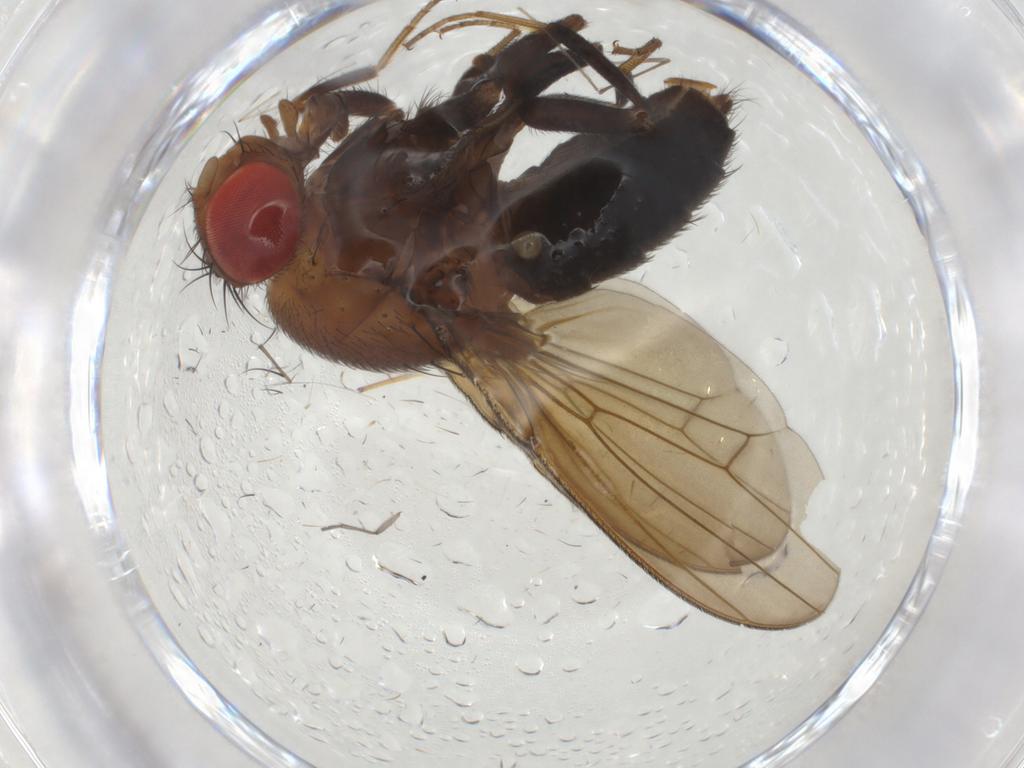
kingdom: Animalia
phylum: Arthropoda
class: Insecta
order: Diptera
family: Drosophilidae
